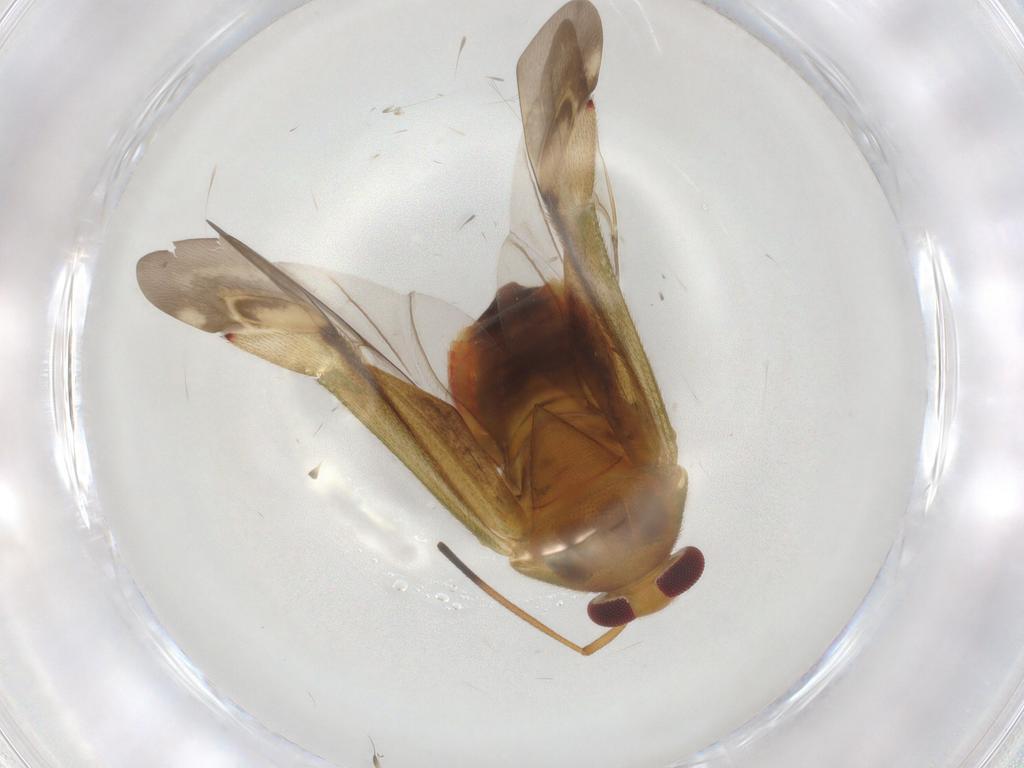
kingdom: Animalia
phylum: Arthropoda
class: Insecta
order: Hemiptera
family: Miridae
